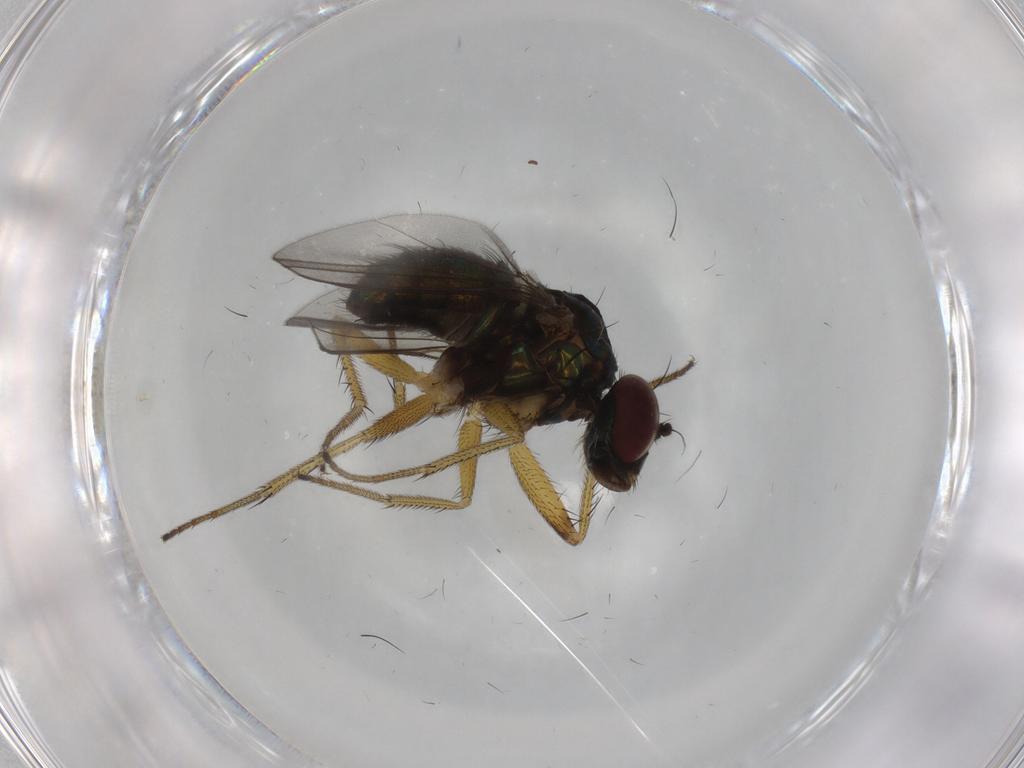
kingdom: Animalia
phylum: Arthropoda
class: Insecta
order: Diptera
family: Dolichopodidae
